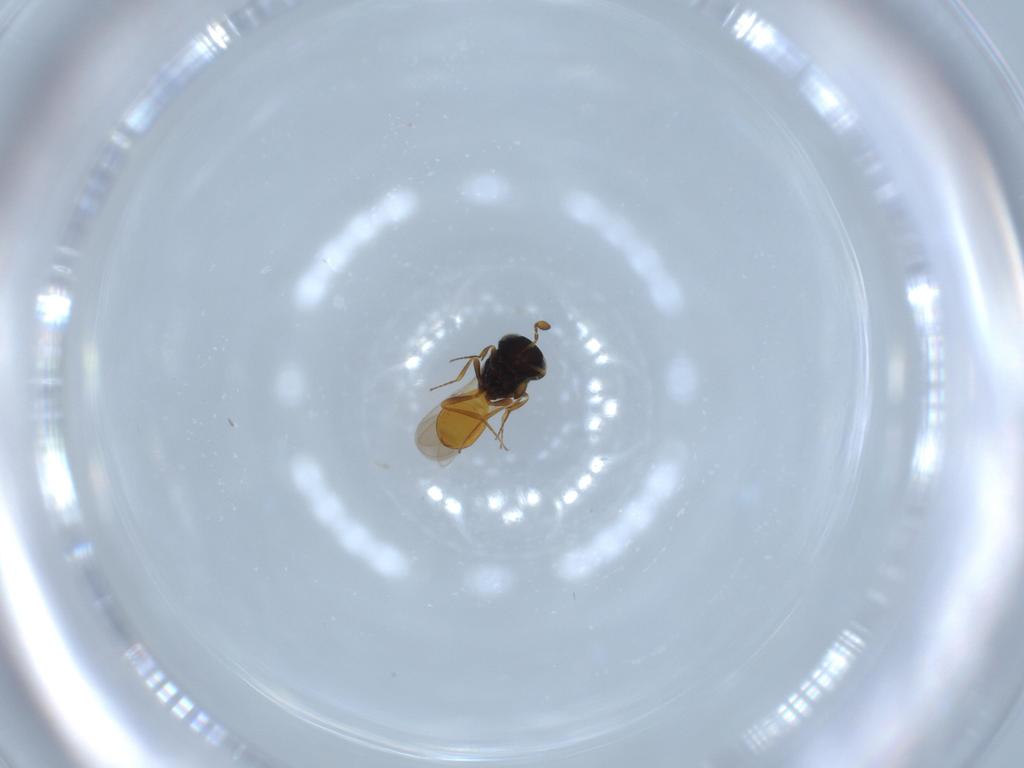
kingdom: Animalia
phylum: Arthropoda
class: Insecta
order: Hymenoptera
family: Scelionidae
